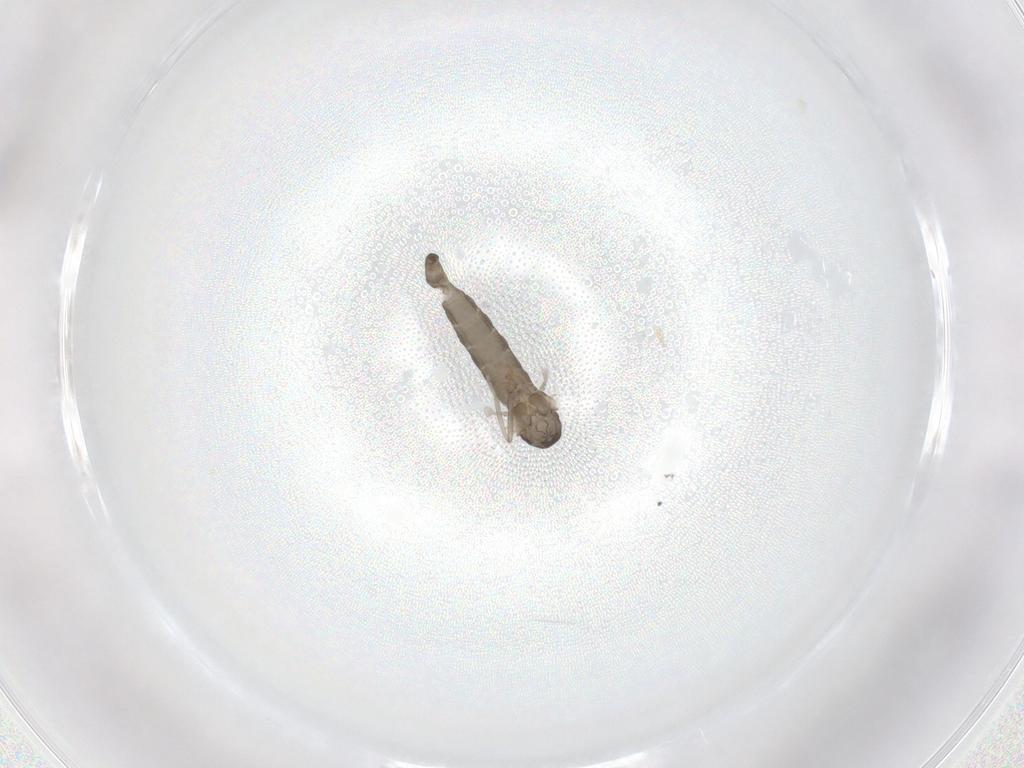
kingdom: Animalia
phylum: Arthropoda
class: Insecta
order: Diptera
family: Cecidomyiidae
